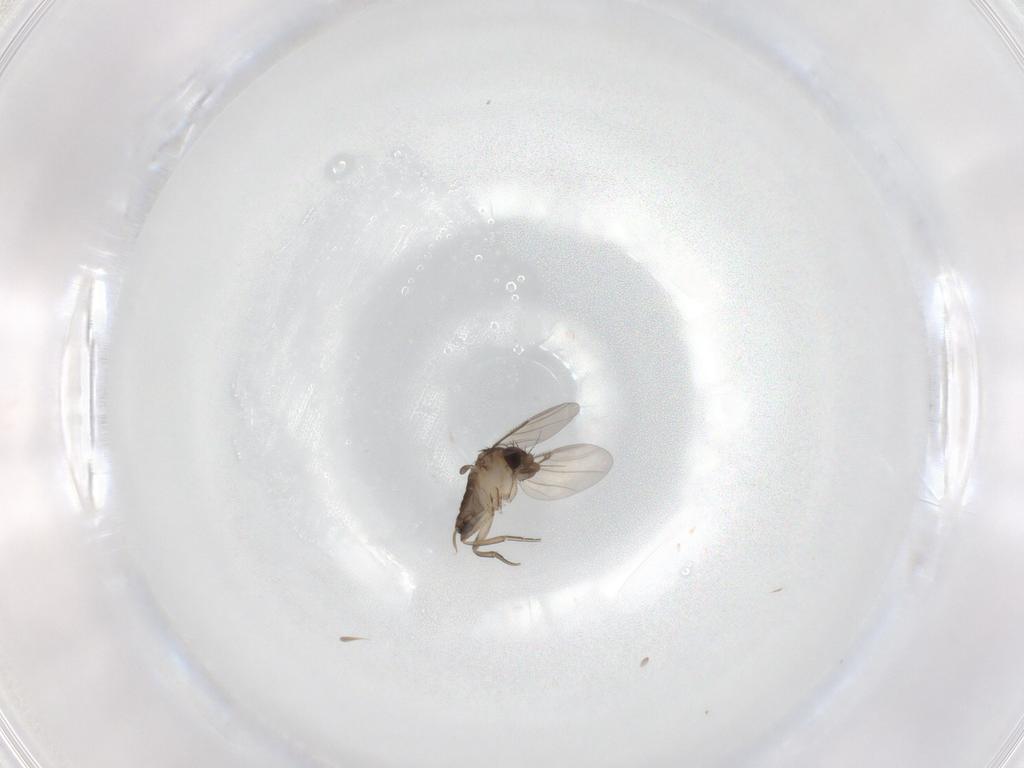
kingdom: Animalia
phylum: Arthropoda
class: Insecta
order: Diptera
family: Phoridae
